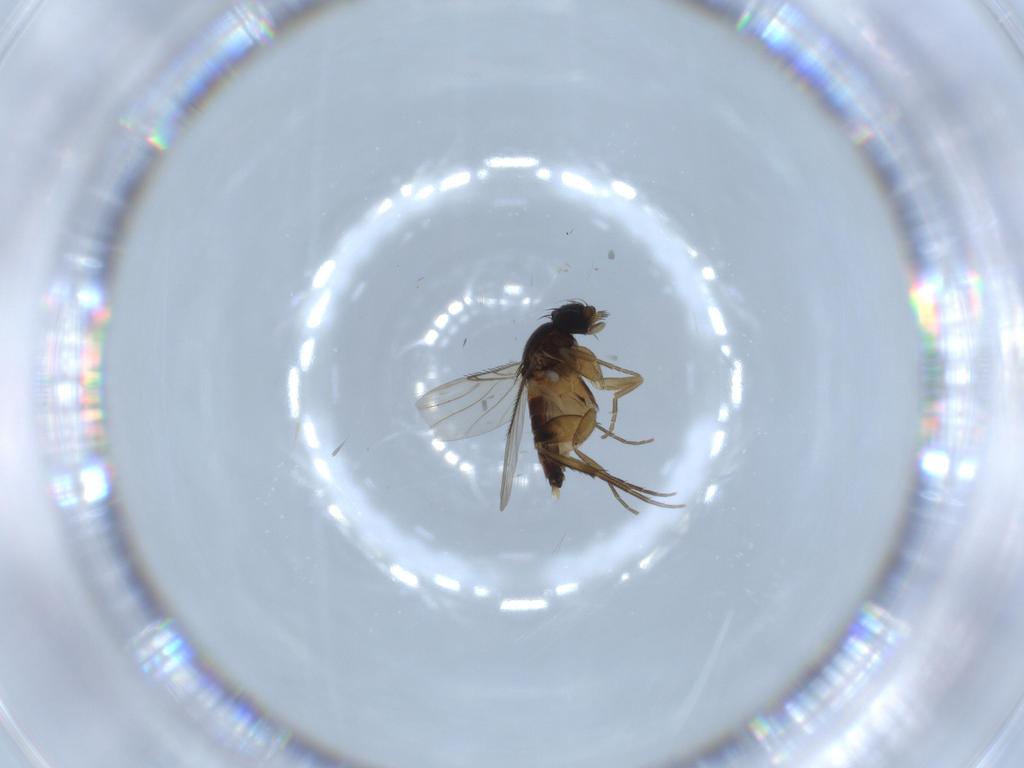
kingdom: Animalia
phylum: Arthropoda
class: Insecta
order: Diptera
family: Phoridae
